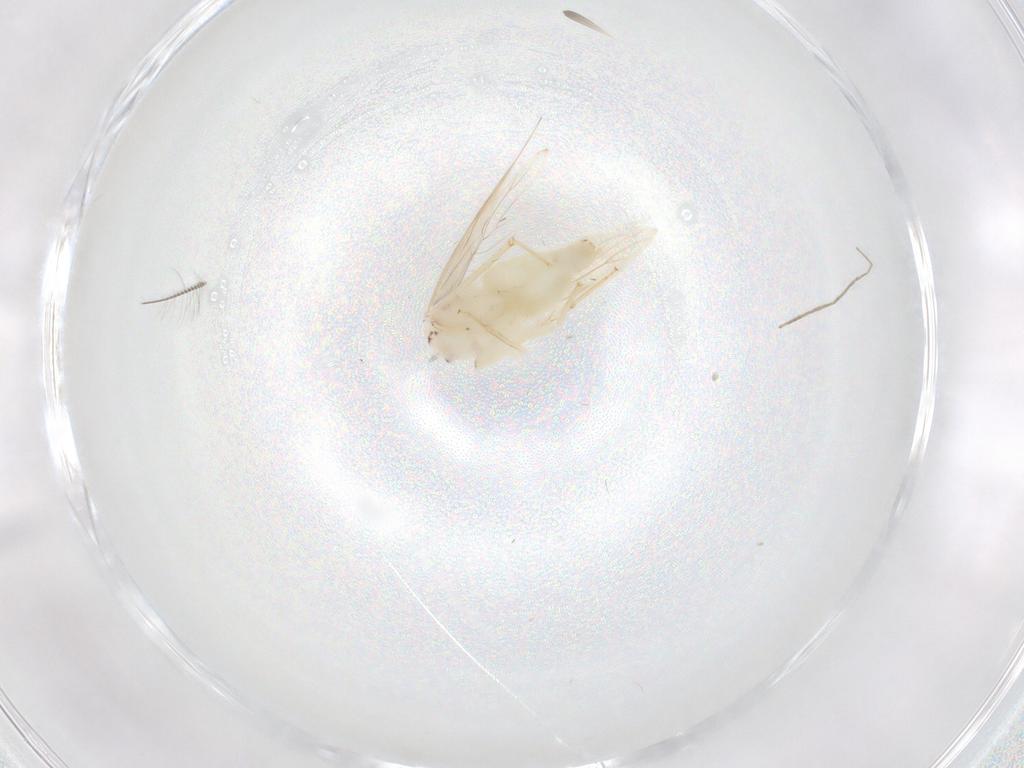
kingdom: Animalia
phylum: Arthropoda
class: Insecta
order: Psocodea
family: Lepidopsocidae
